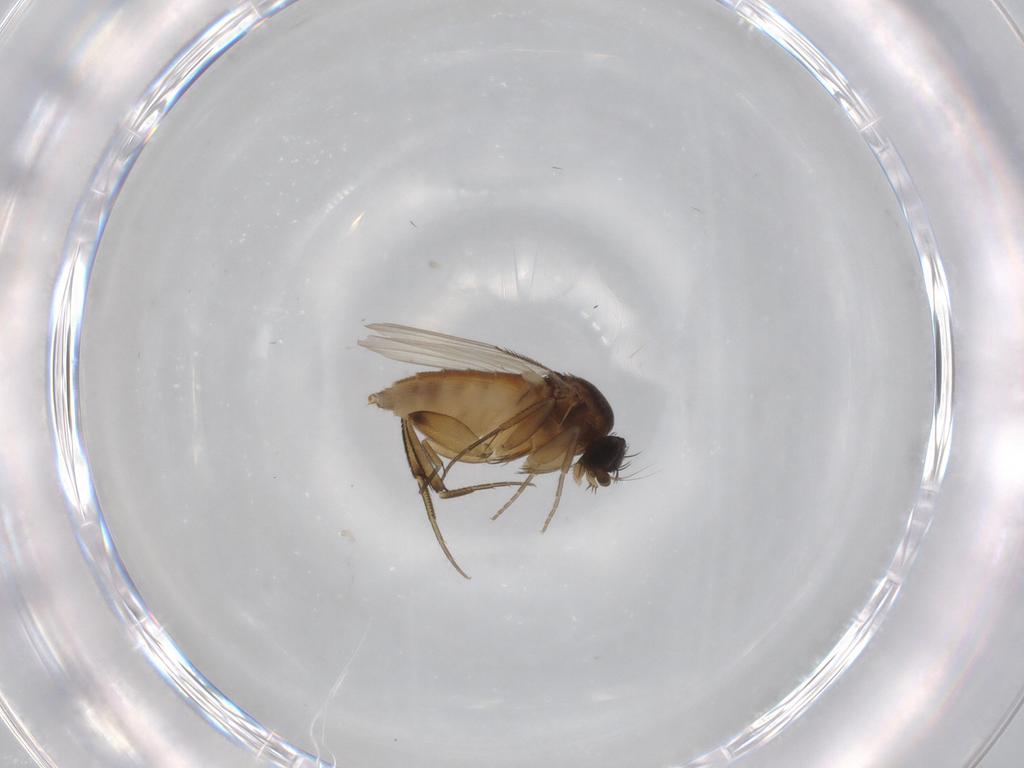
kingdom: Animalia
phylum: Arthropoda
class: Insecta
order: Diptera
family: Phoridae
